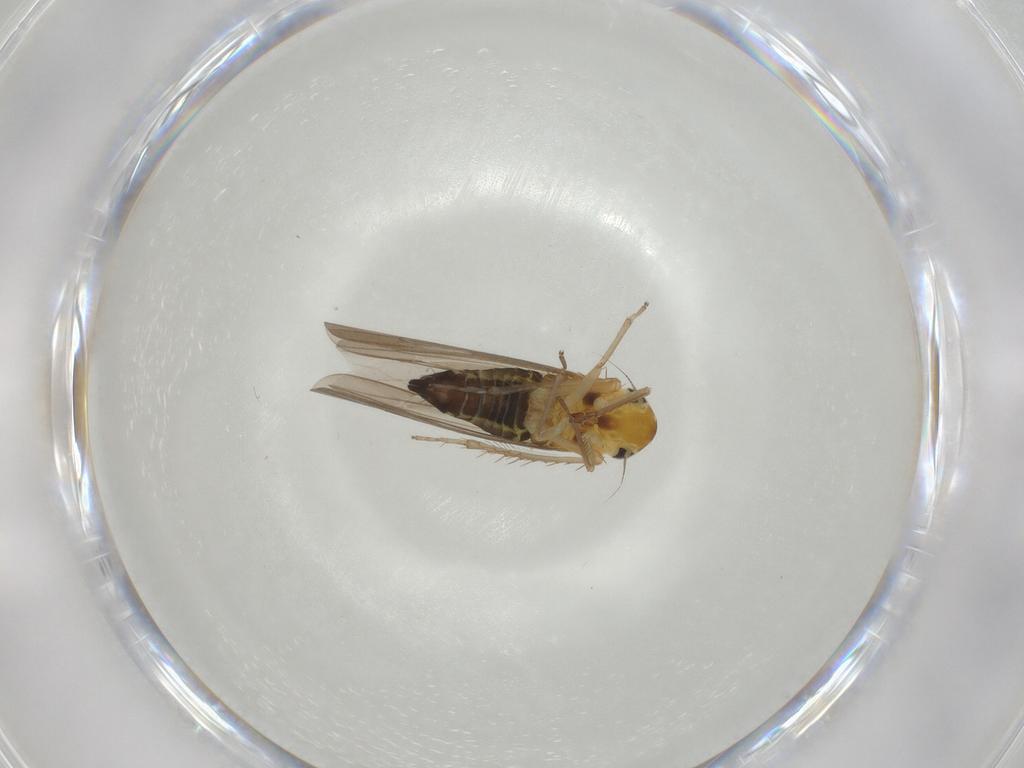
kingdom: Animalia
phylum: Arthropoda
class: Insecta
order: Hemiptera
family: Cicadellidae
